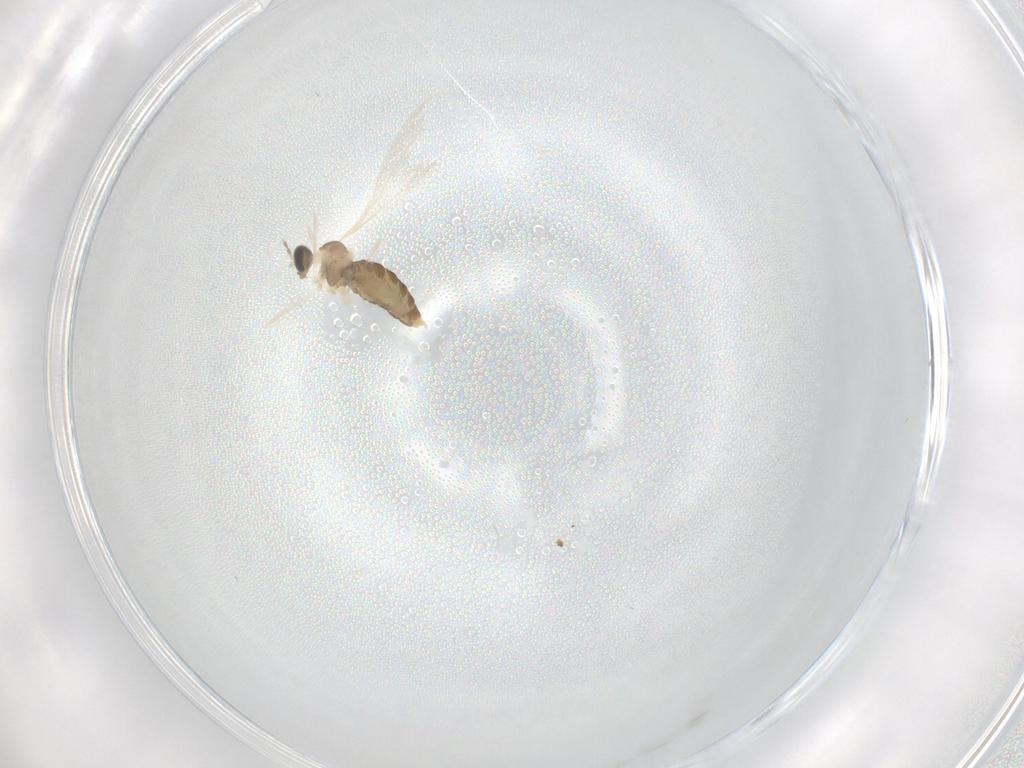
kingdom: Animalia
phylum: Arthropoda
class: Insecta
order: Diptera
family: Cecidomyiidae
